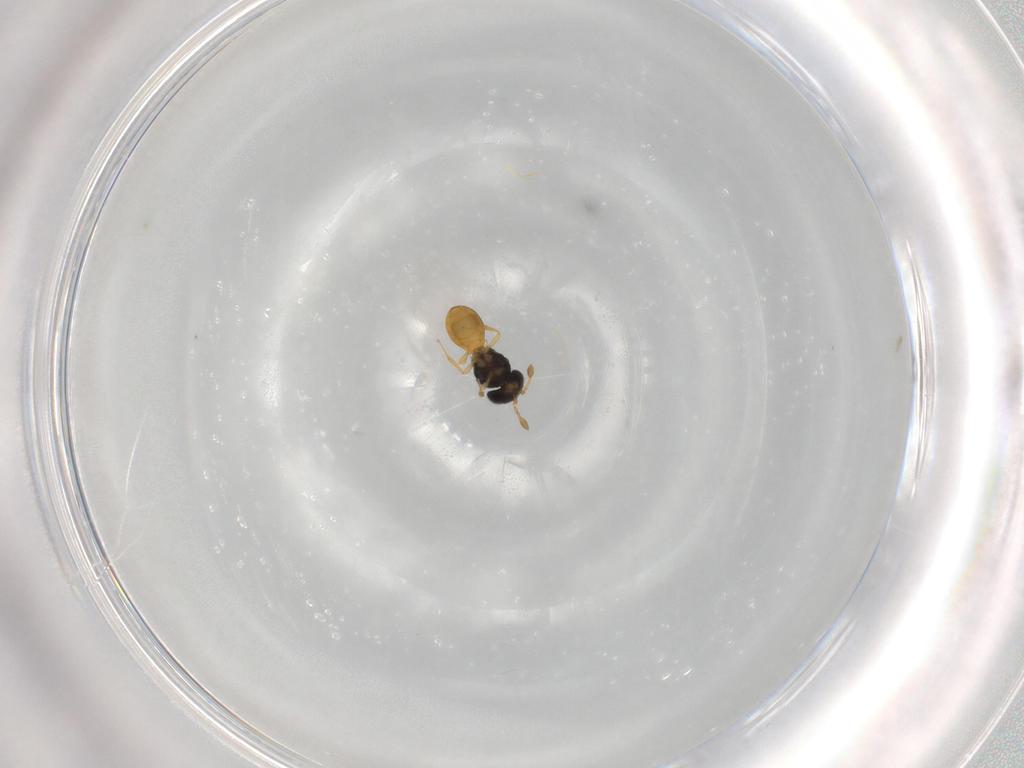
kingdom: Animalia
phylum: Arthropoda
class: Insecta
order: Hymenoptera
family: Scelionidae
